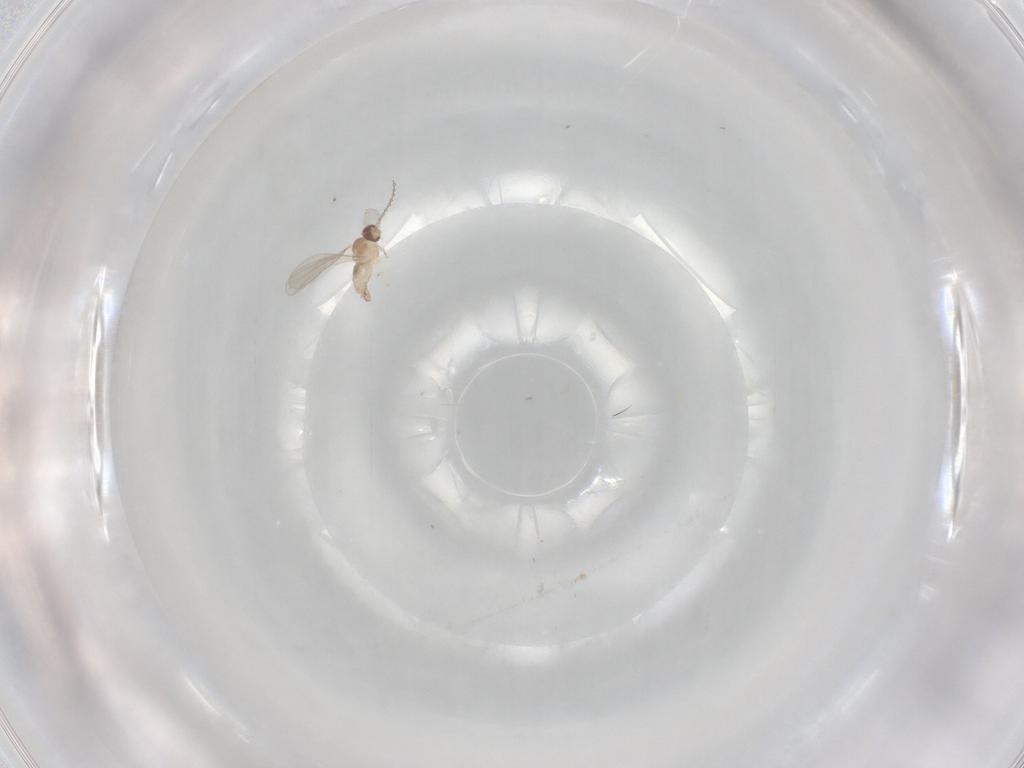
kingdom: Animalia
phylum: Arthropoda
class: Insecta
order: Diptera
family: Cecidomyiidae
